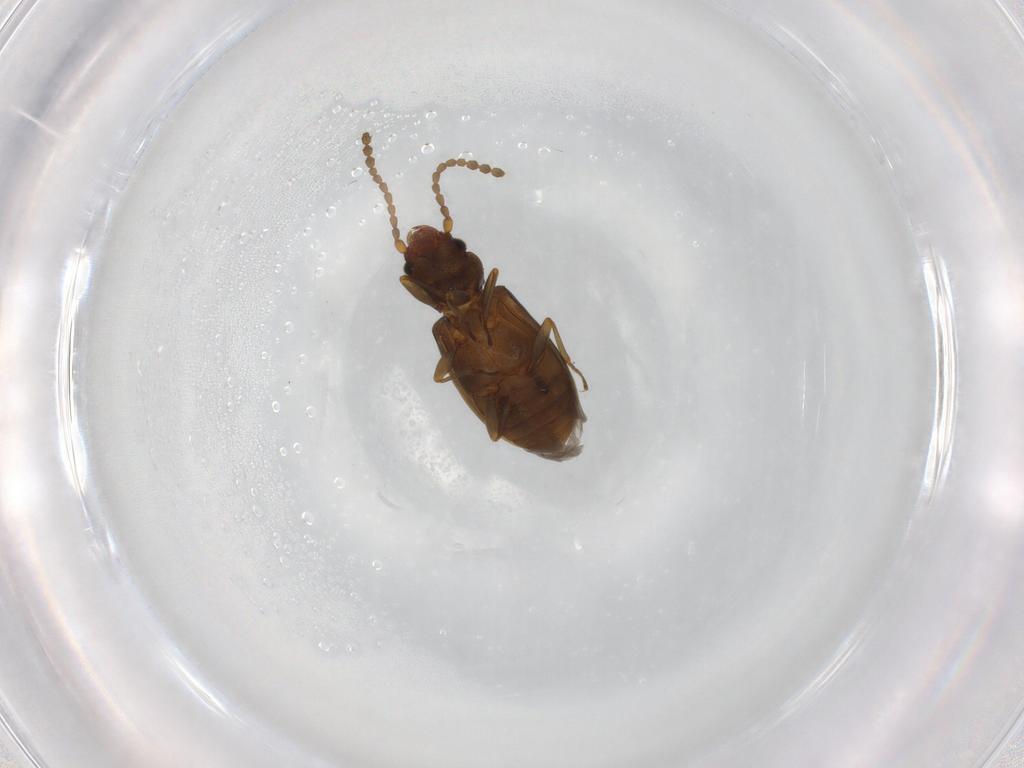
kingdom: Animalia
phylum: Arthropoda
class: Insecta
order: Coleoptera
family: Laemophloeidae
